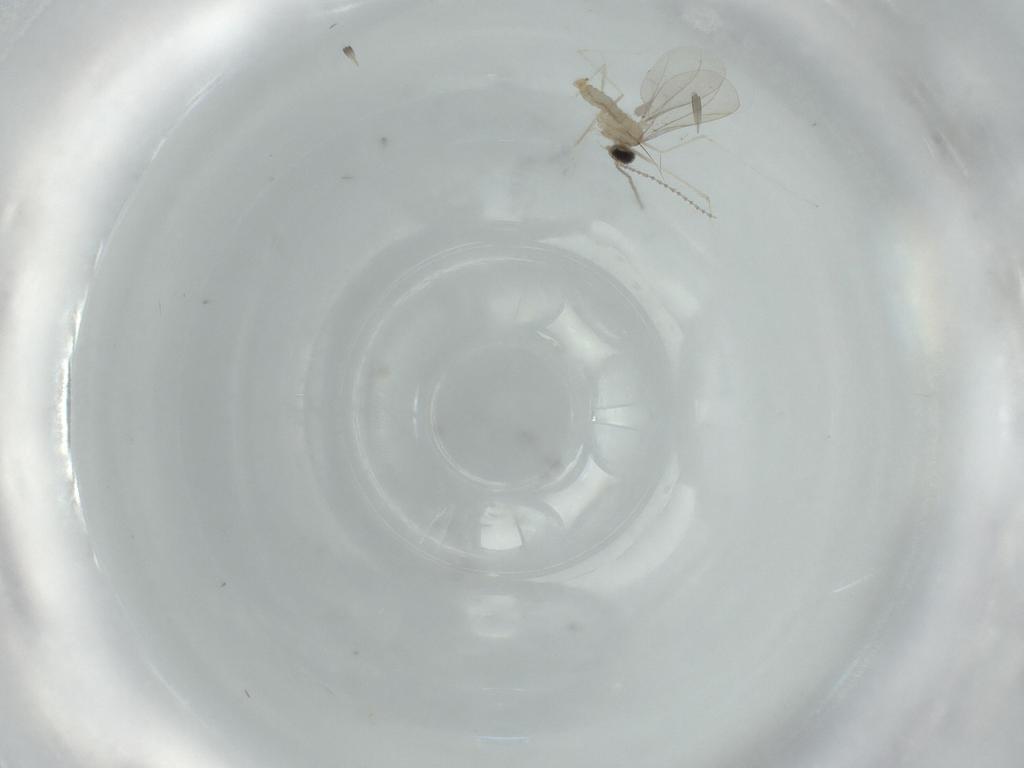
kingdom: Animalia
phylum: Arthropoda
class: Insecta
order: Diptera
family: Cecidomyiidae
